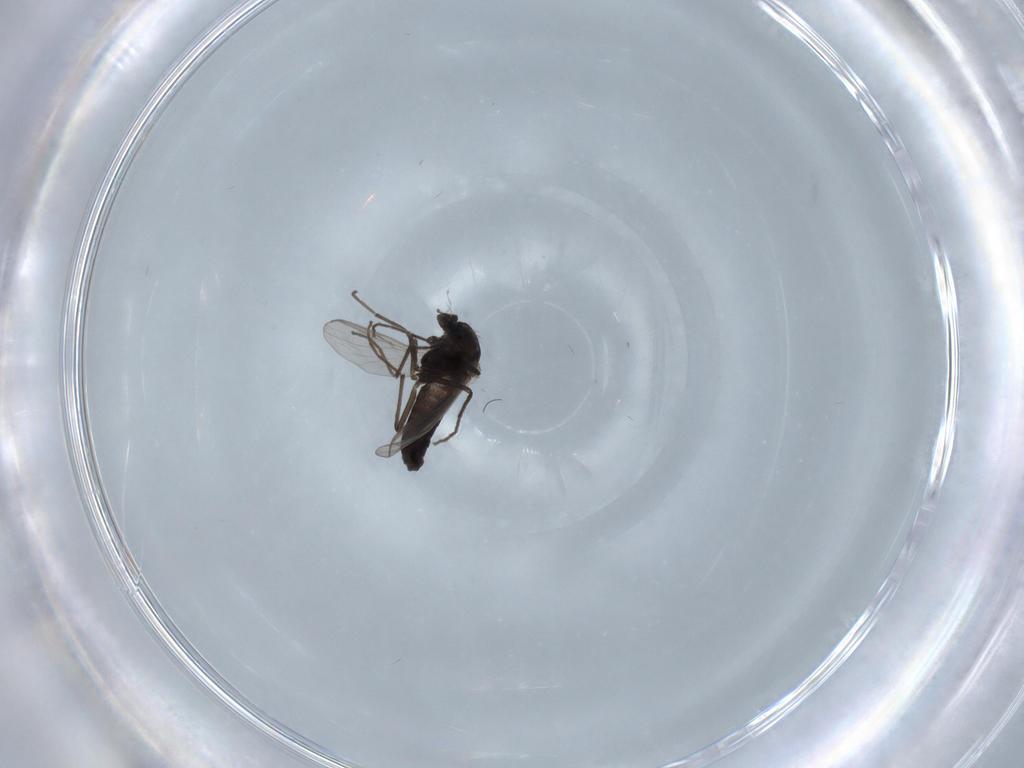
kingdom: Animalia
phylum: Arthropoda
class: Insecta
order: Diptera
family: Chironomidae
